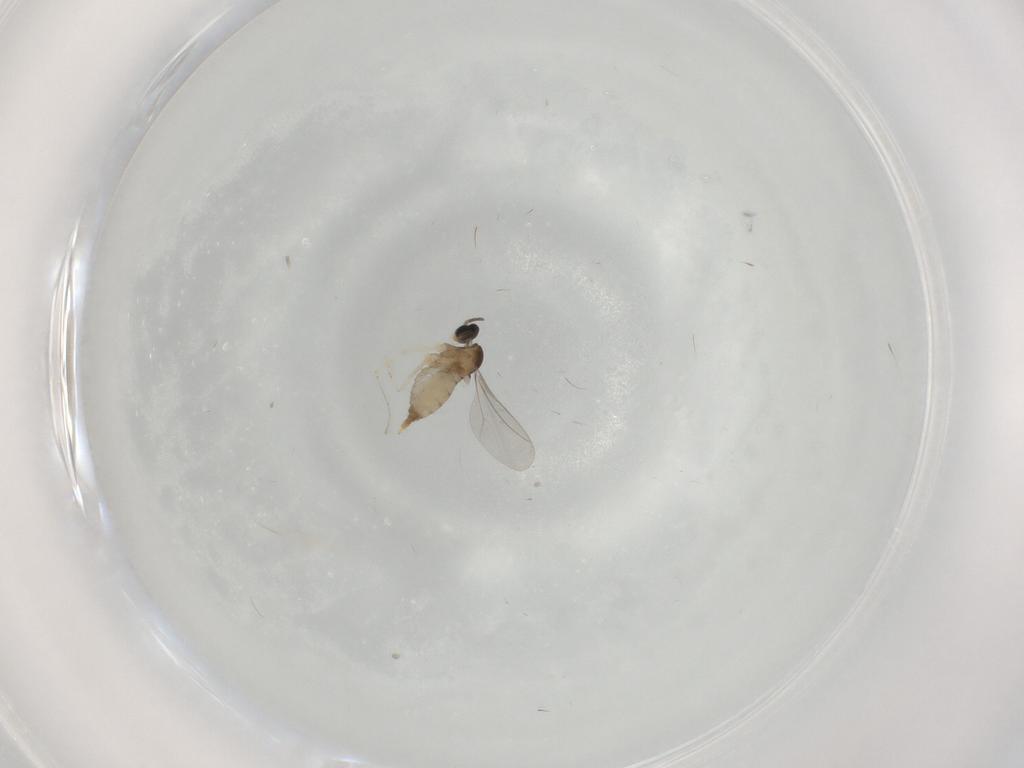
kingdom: Animalia
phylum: Arthropoda
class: Insecta
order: Diptera
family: Cecidomyiidae
